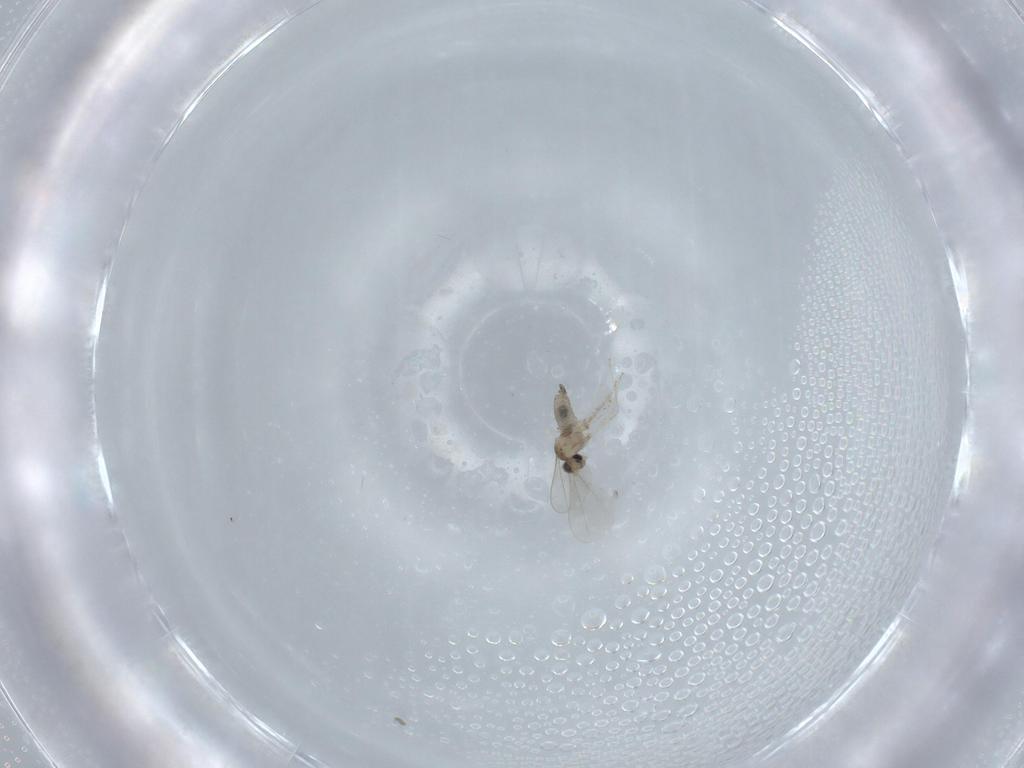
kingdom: Animalia
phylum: Arthropoda
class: Insecta
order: Diptera
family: Cecidomyiidae
